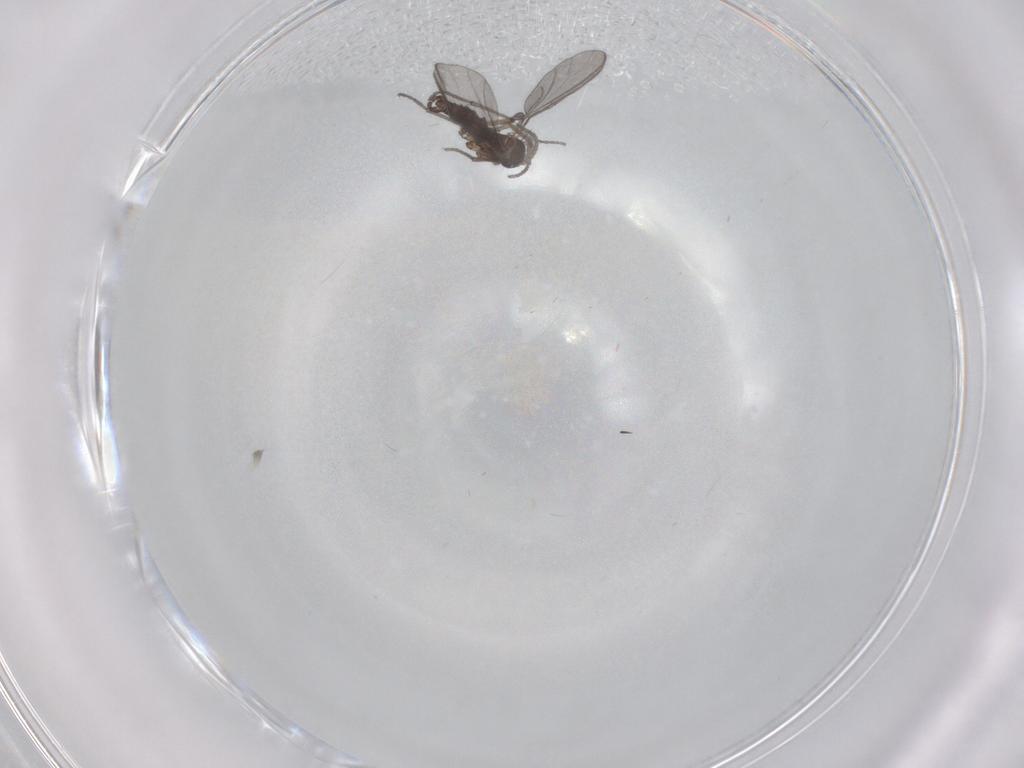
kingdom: Animalia
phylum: Arthropoda
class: Insecta
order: Diptera
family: Sciaridae
